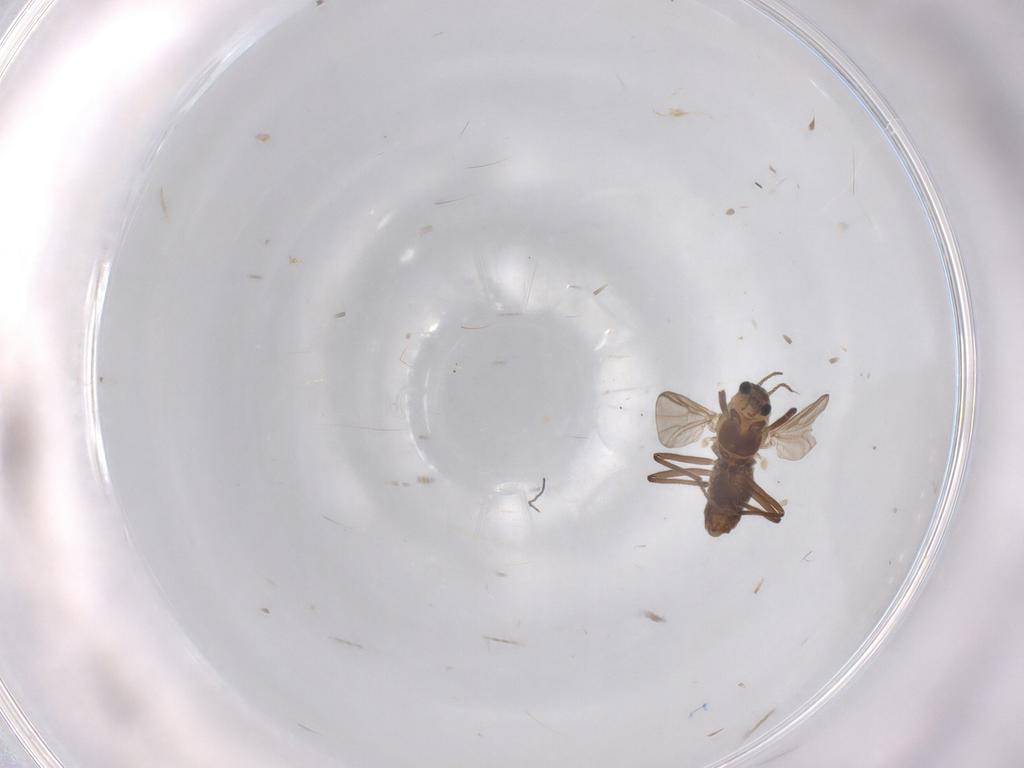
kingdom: Animalia
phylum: Arthropoda
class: Insecta
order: Diptera
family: Chironomidae
